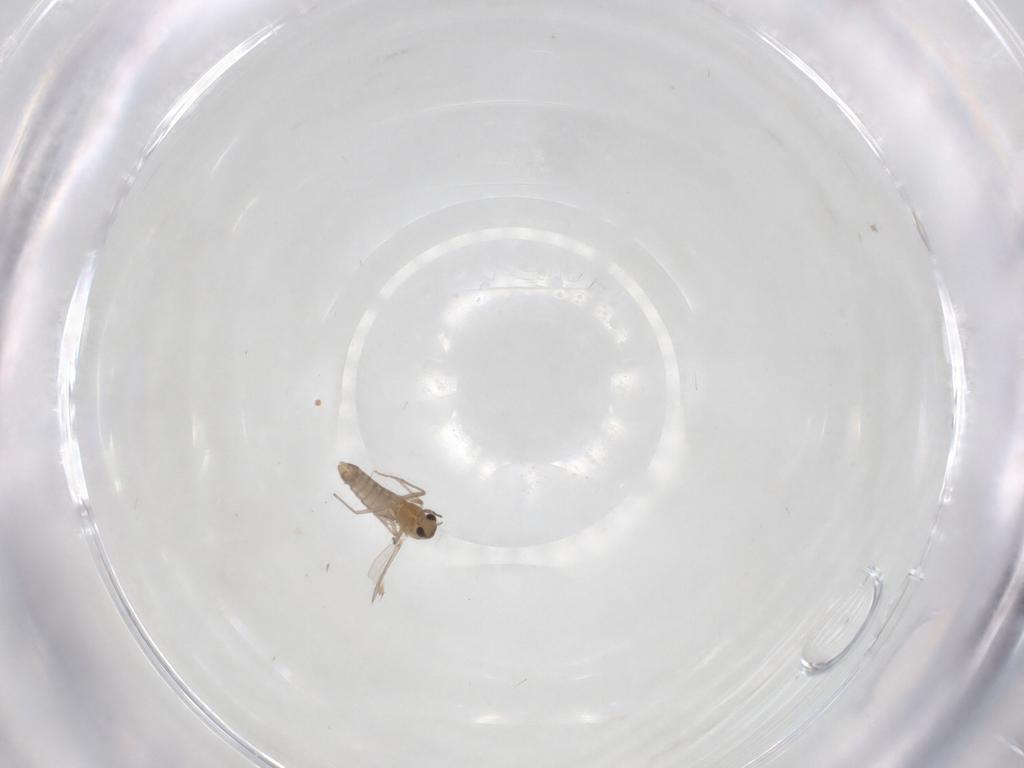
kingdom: Animalia
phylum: Arthropoda
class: Insecta
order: Diptera
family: Chironomidae
